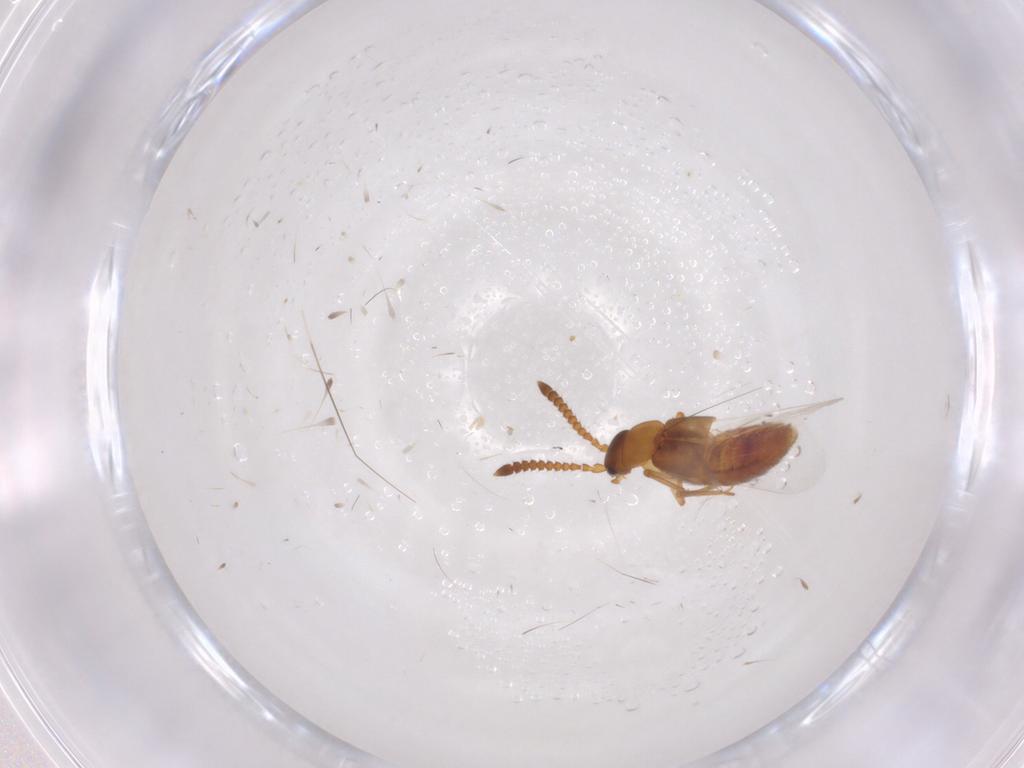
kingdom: Animalia
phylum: Arthropoda
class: Insecta
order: Coleoptera
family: Staphylinidae
